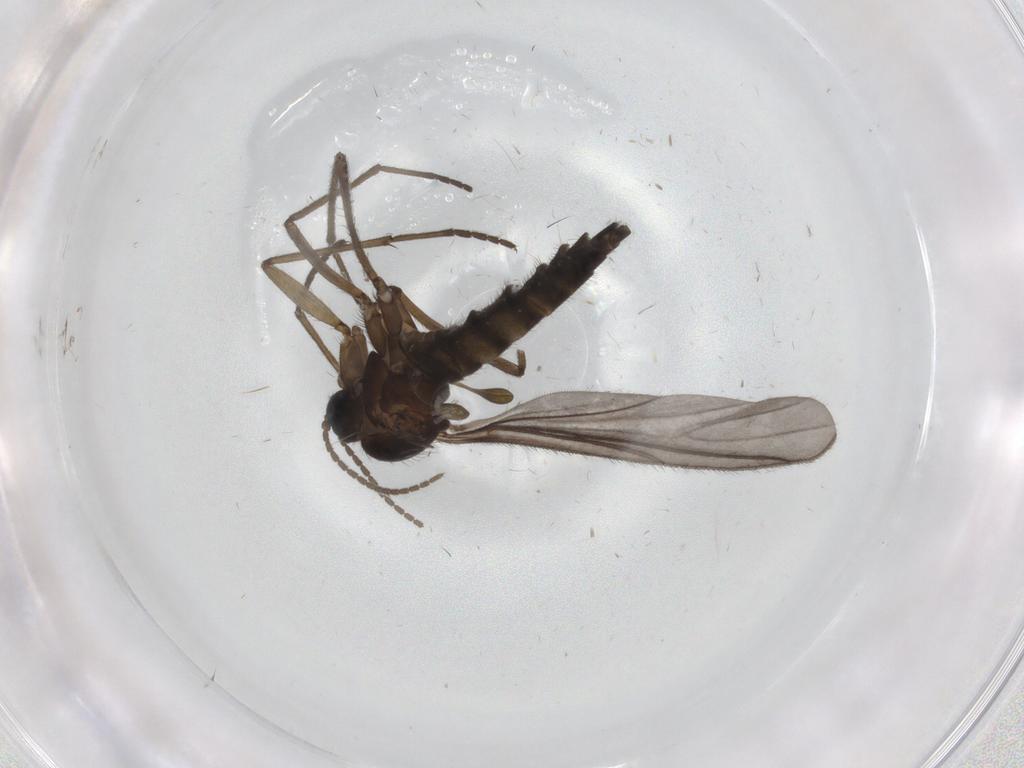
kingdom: Animalia
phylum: Arthropoda
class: Insecta
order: Diptera
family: Sciaridae
